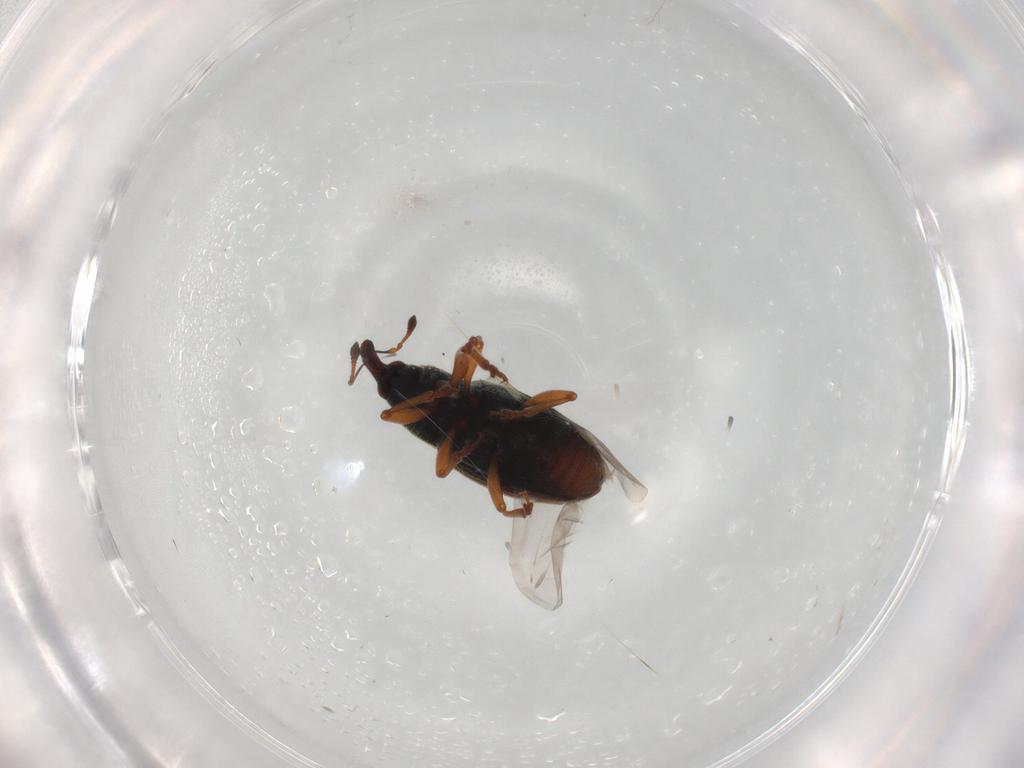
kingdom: Animalia
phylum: Arthropoda
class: Insecta
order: Coleoptera
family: Curculionidae
